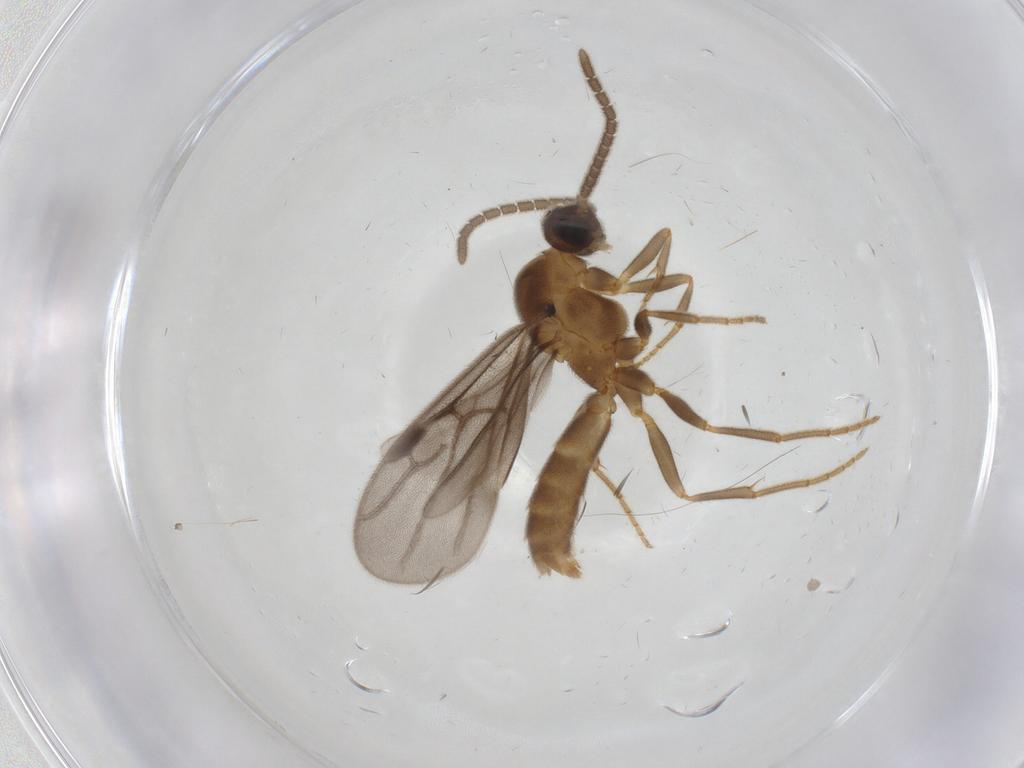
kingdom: Animalia
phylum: Arthropoda
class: Insecta
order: Hymenoptera
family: Formicidae
